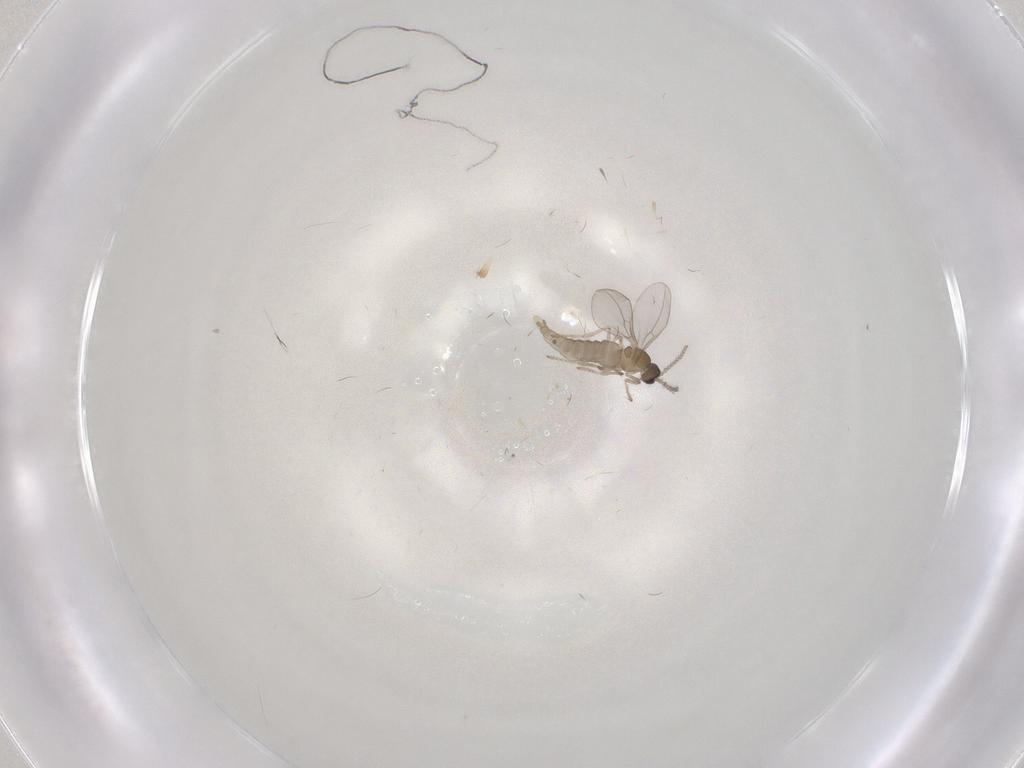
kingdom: Animalia
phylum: Arthropoda
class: Insecta
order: Diptera
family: Cecidomyiidae
